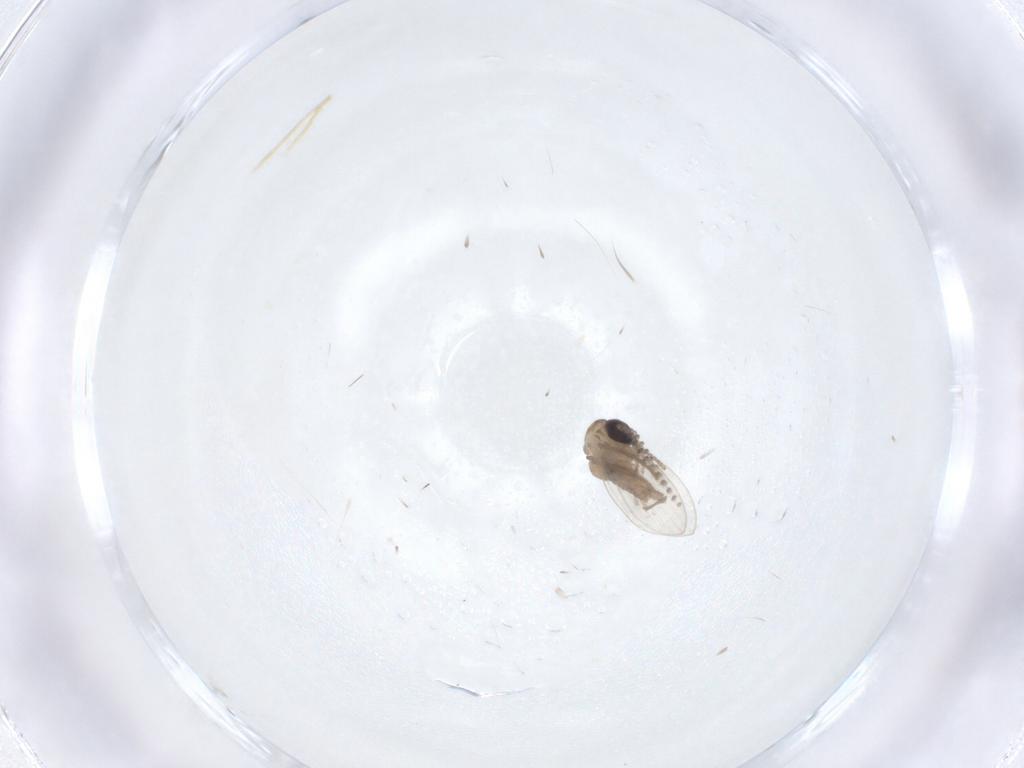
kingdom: Animalia
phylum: Arthropoda
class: Insecta
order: Diptera
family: Psychodidae
